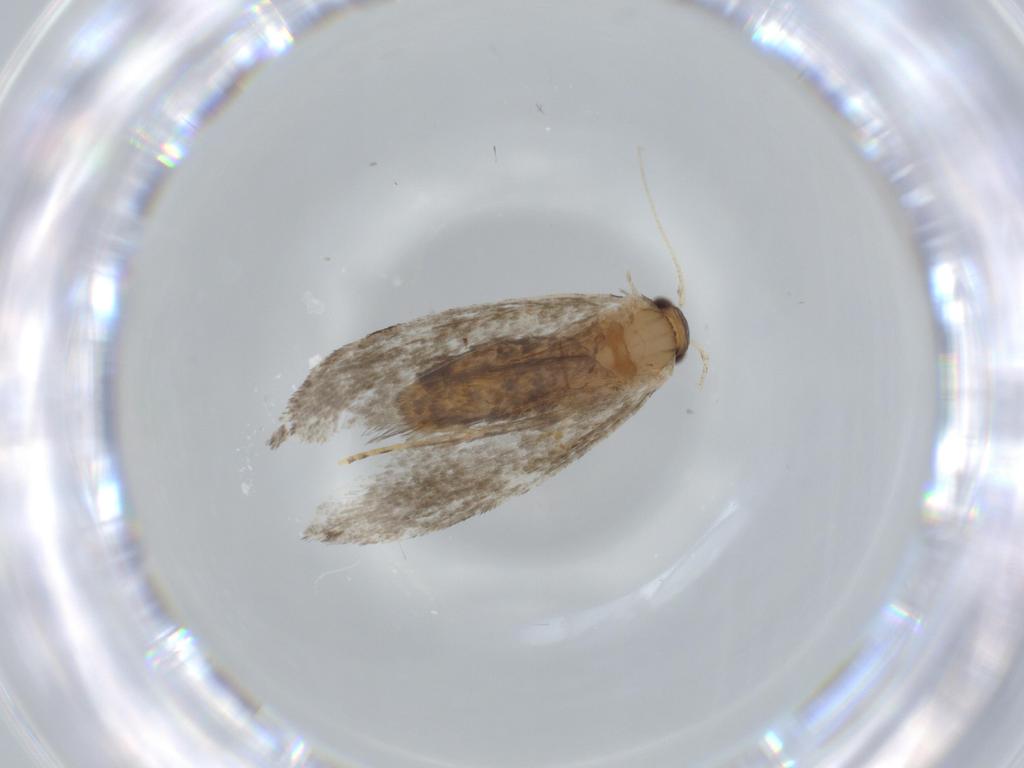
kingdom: Animalia
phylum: Arthropoda
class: Insecta
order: Lepidoptera
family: Tineidae
